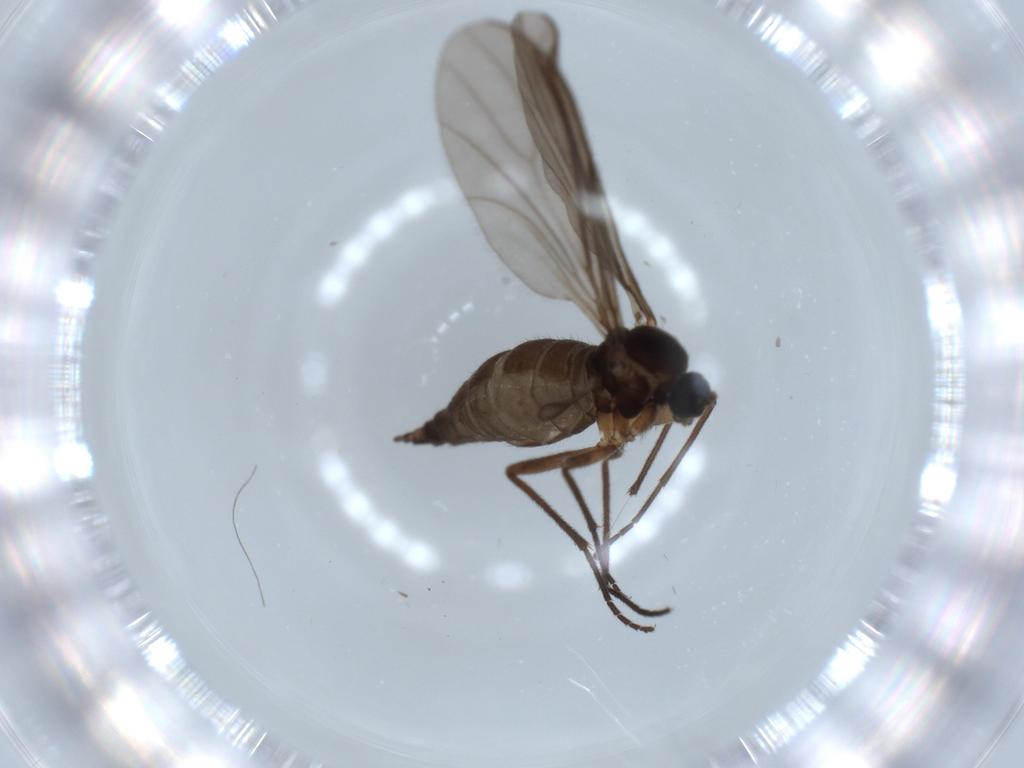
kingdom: Animalia
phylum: Arthropoda
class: Insecta
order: Diptera
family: Sciaridae
